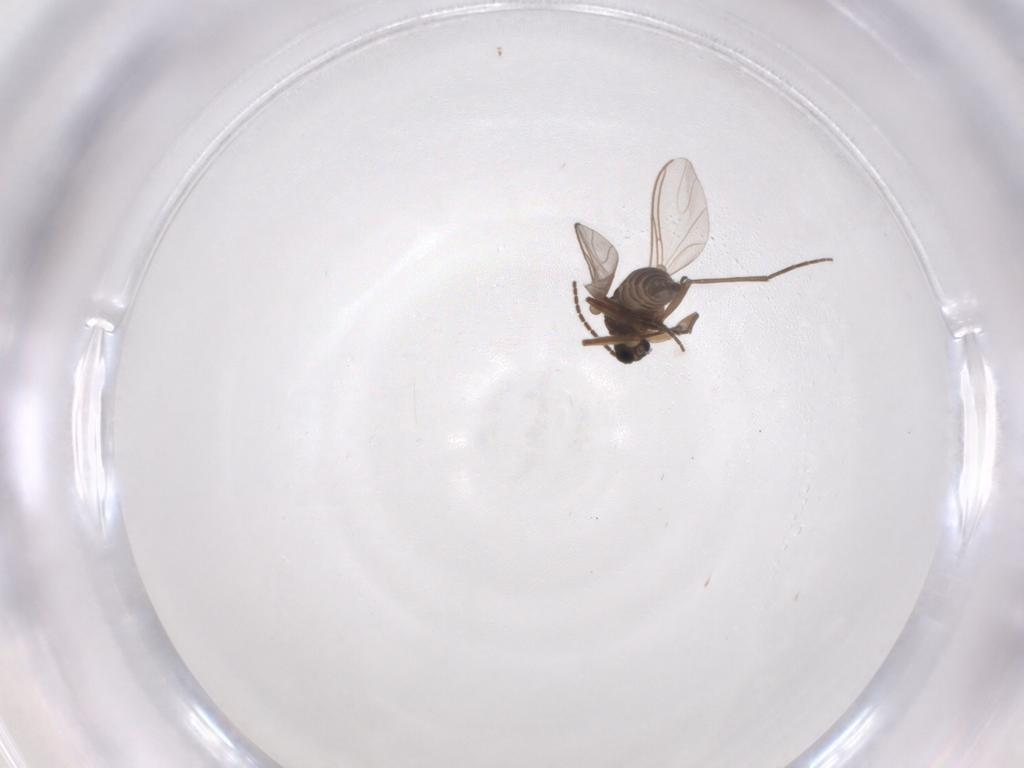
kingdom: Animalia
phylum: Arthropoda
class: Insecta
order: Diptera
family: Sciaridae
